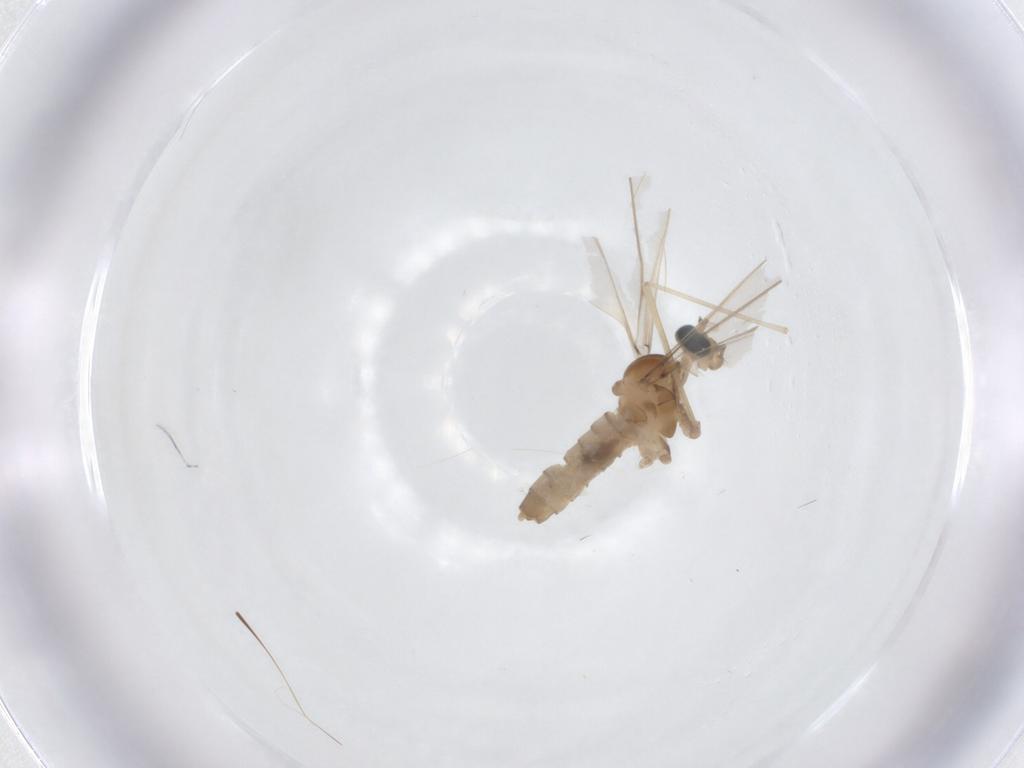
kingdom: Animalia
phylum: Arthropoda
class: Insecta
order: Diptera
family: Cecidomyiidae
